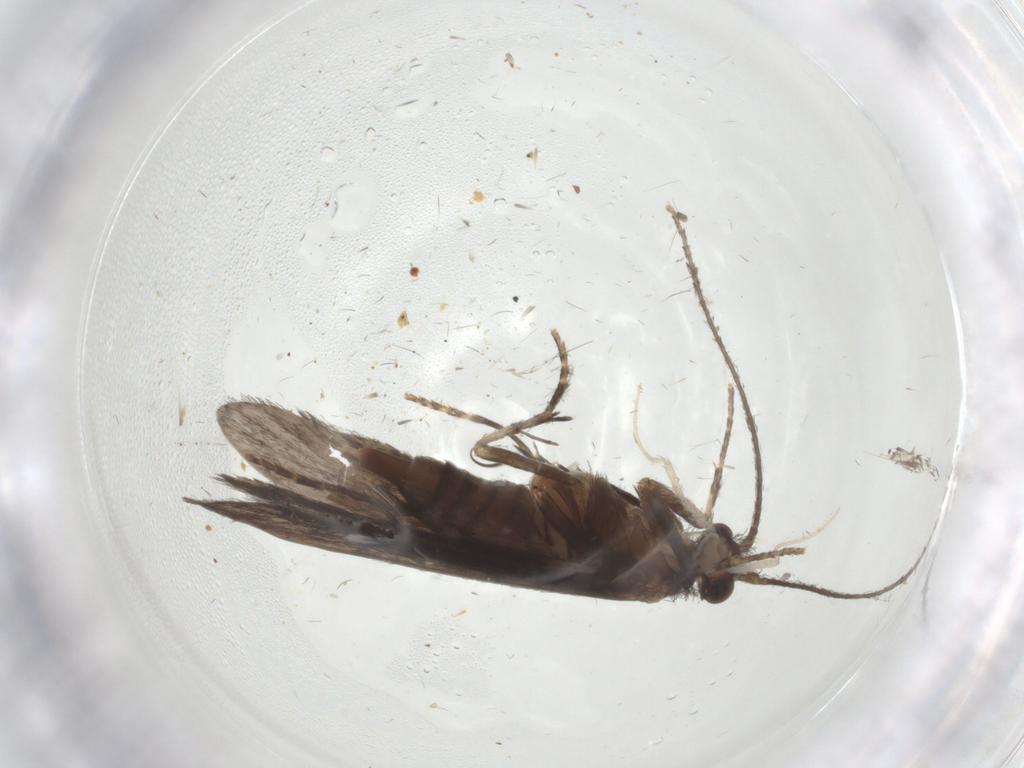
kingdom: Animalia
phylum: Arthropoda
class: Insecta
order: Trichoptera
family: Xiphocentronidae
